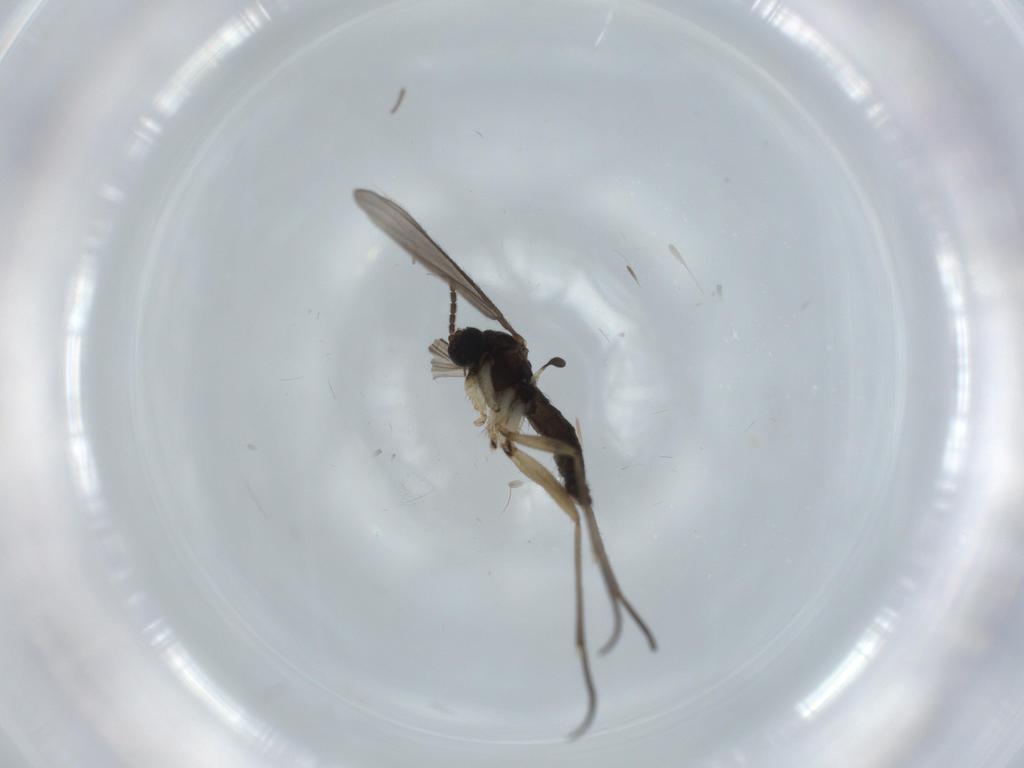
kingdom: Animalia
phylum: Arthropoda
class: Insecta
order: Diptera
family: Sciaridae
